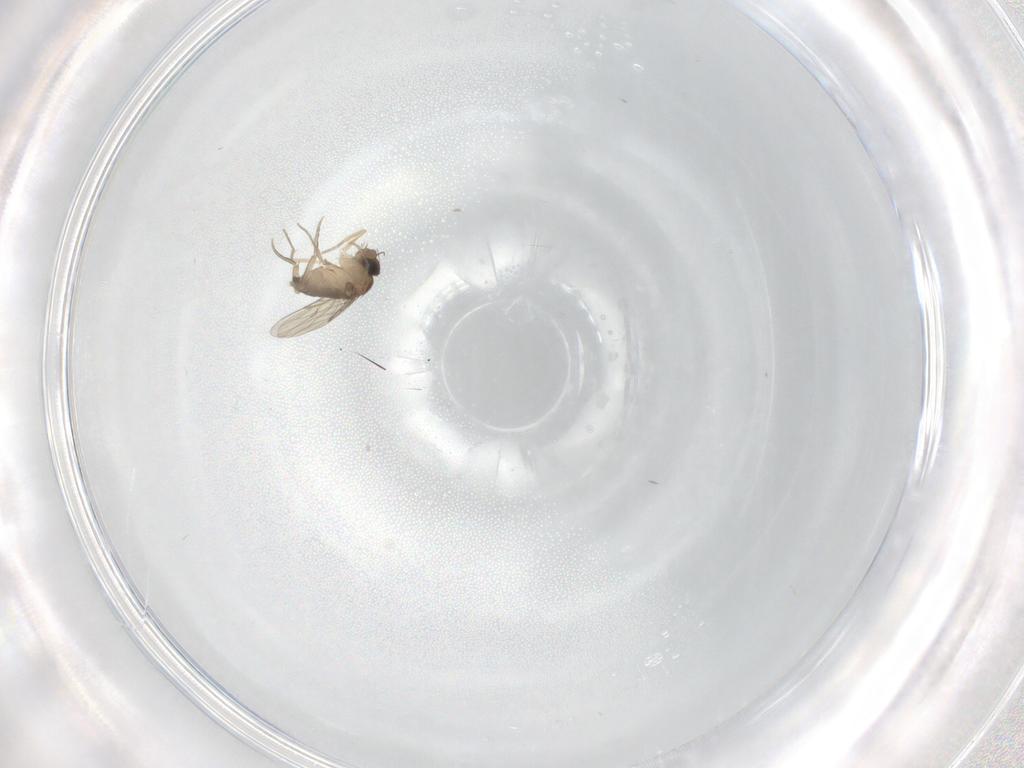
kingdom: Animalia
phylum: Arthropoda
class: Insecta
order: Diptera
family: Phoridae
